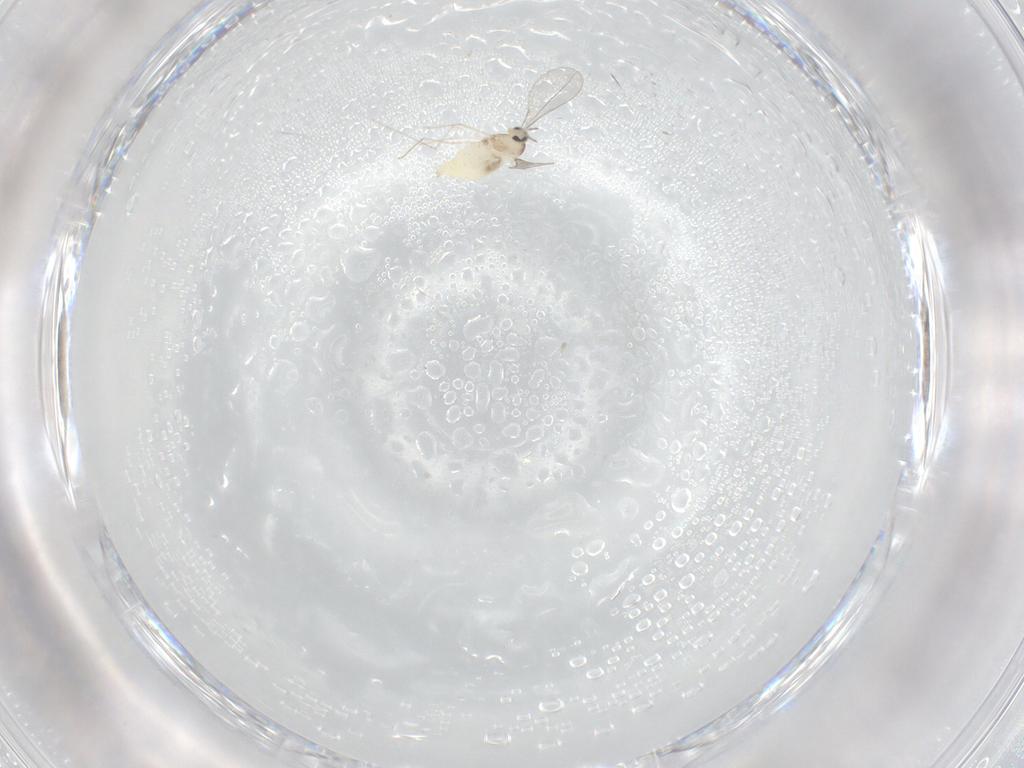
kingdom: Animalia
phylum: Arthropoda
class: Insecta
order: Diptera
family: Cecidomyiidae
